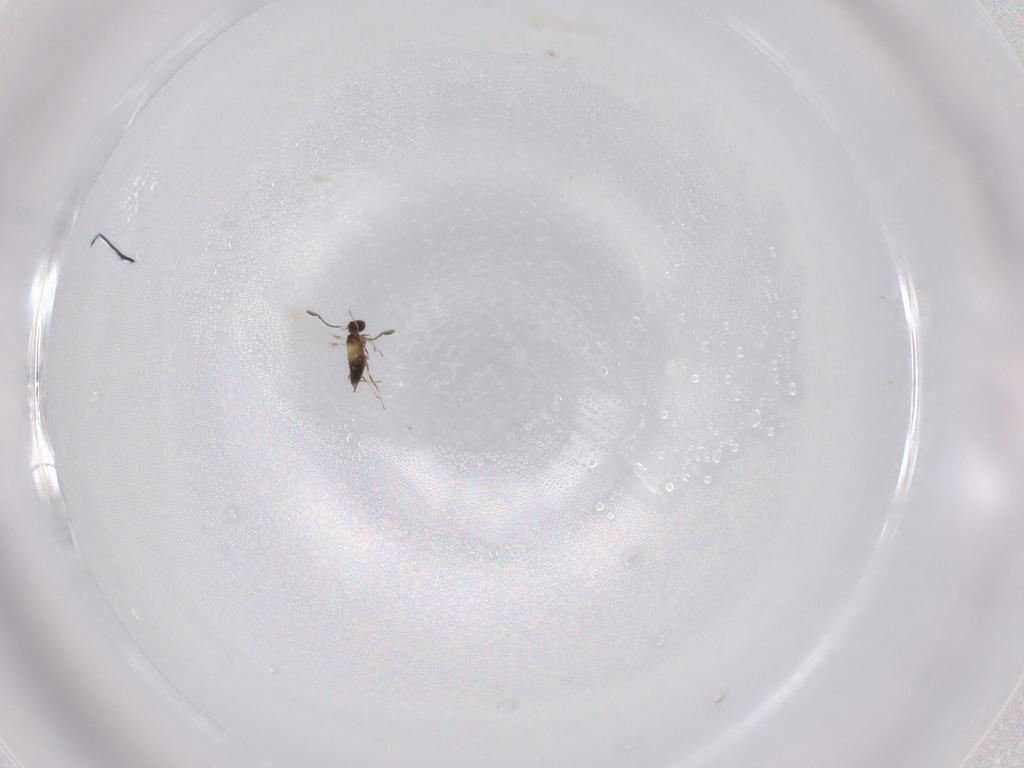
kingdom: Animalia
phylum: Arthropoda
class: Insecta
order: Hymenoptera
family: Mymaridae
